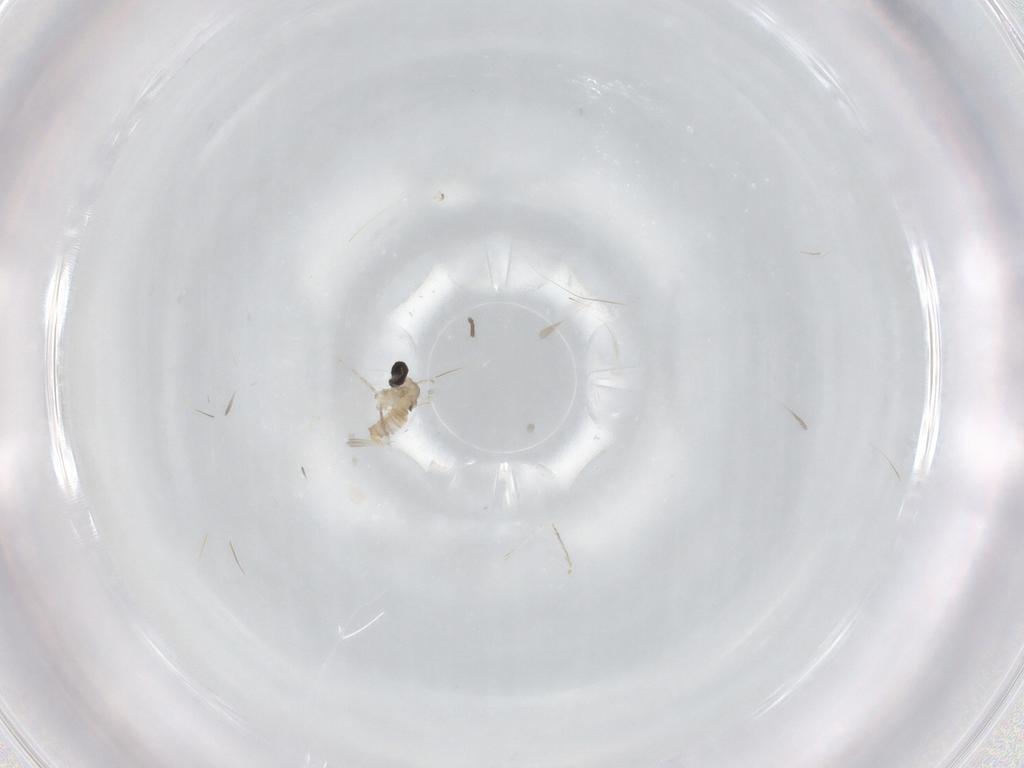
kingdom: Animalia
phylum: Arthropoda
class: Insecta
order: Diptera
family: Cecidomyiidae
